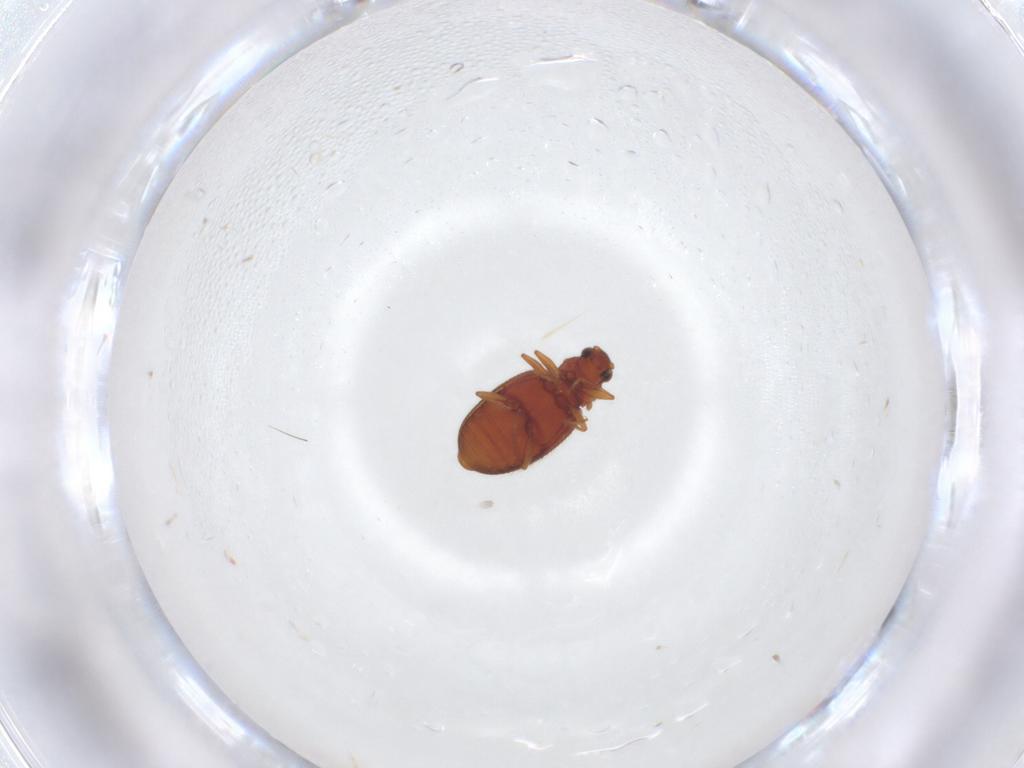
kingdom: Animalia
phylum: Arthropoda
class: Insecta
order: Coleoptera
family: Latridiidae
